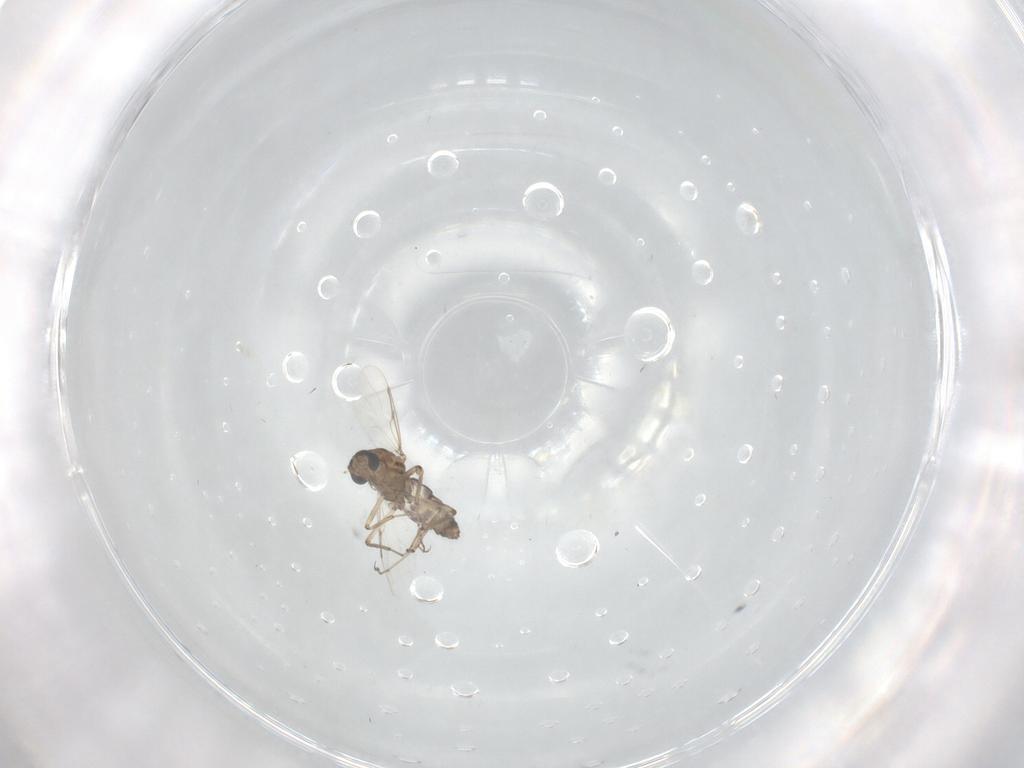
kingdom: Animalia
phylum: Arthropoda
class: Insecta
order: Diptera
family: Ceratopogonidae
